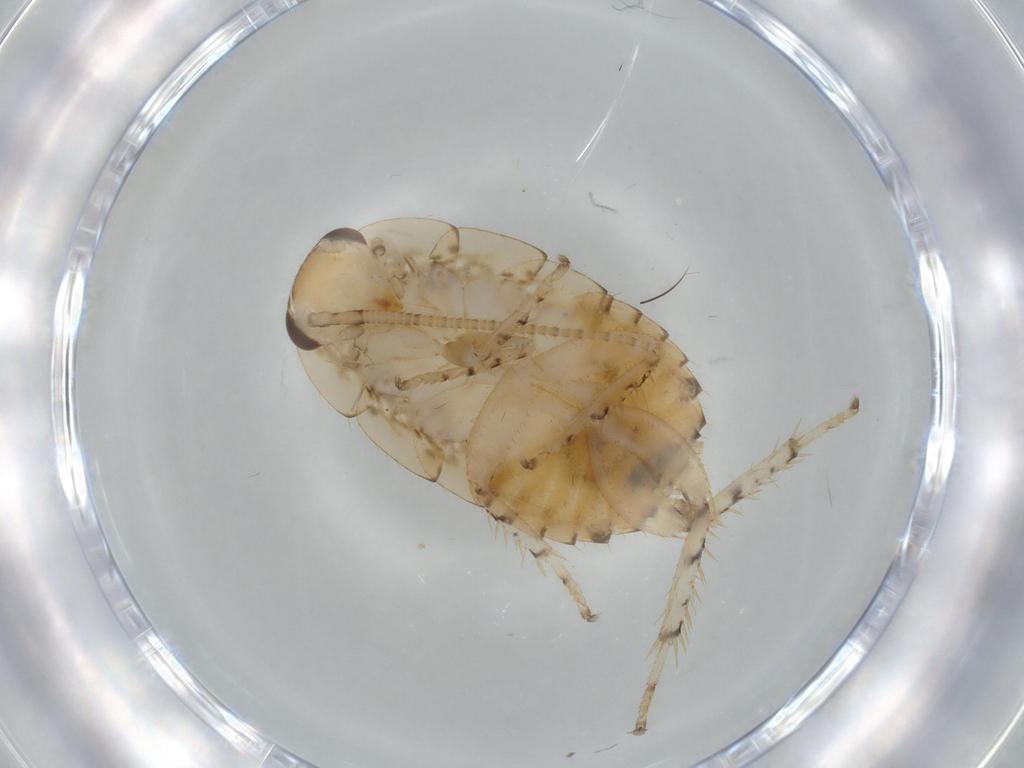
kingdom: Animalia
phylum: Arthropoda
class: Insecta
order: Blattodea
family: Ectobiidae
